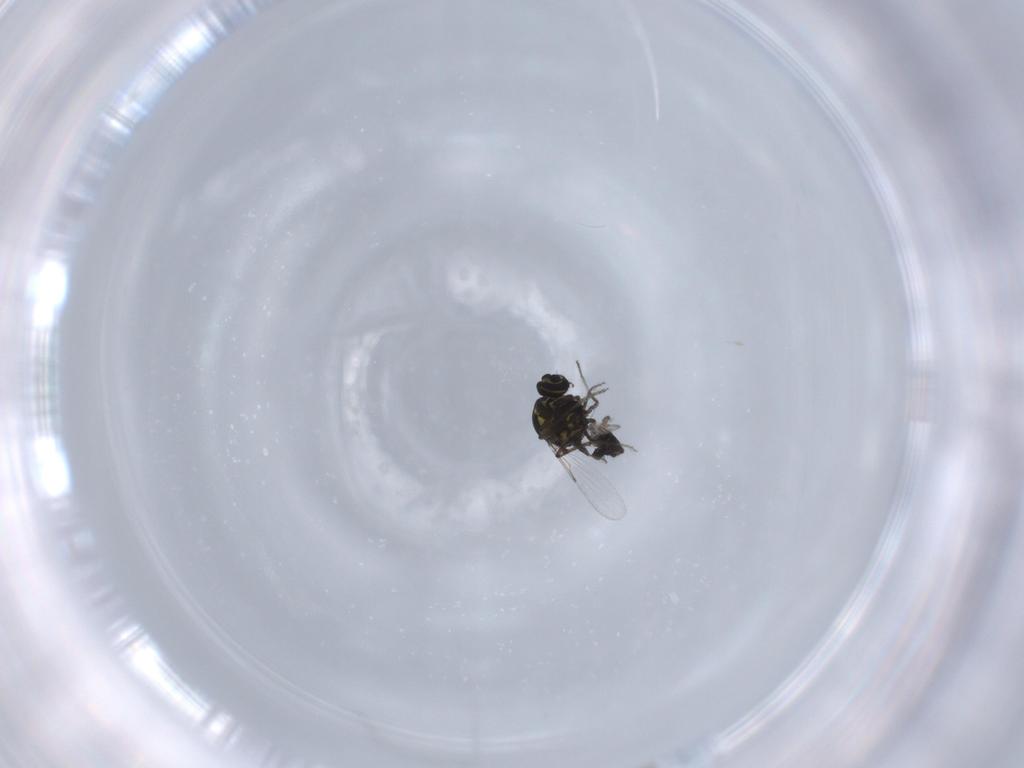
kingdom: Animalia
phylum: Arthropoda
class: Insecta
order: Diptera
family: Ceratopogonidae
